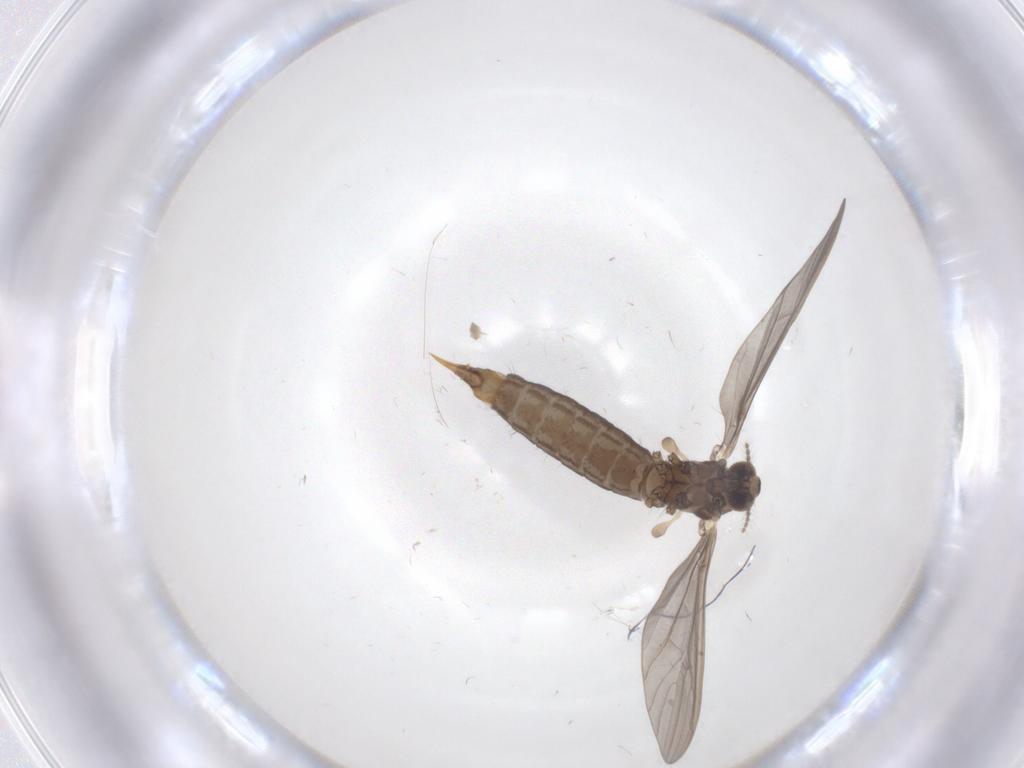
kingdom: Animalia
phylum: Arthropoda
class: Insecta
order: Diptera
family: Limoniidae
